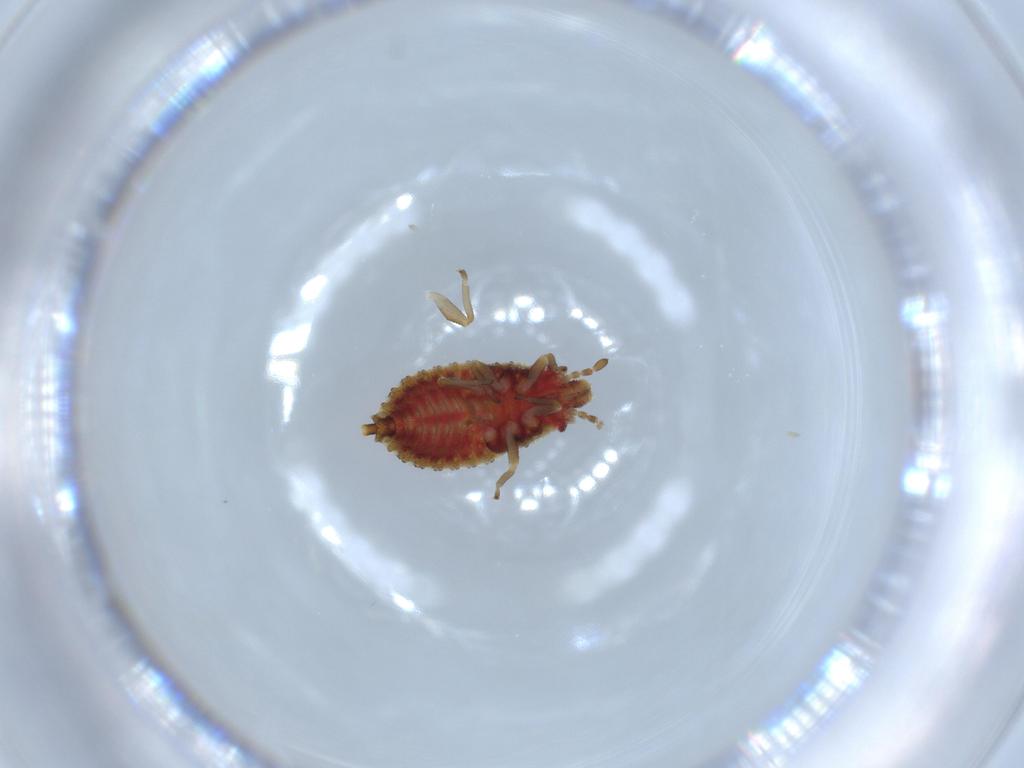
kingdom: Animalia
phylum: Arthropoda
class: Insecta
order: Hemiptera
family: Aradidae
